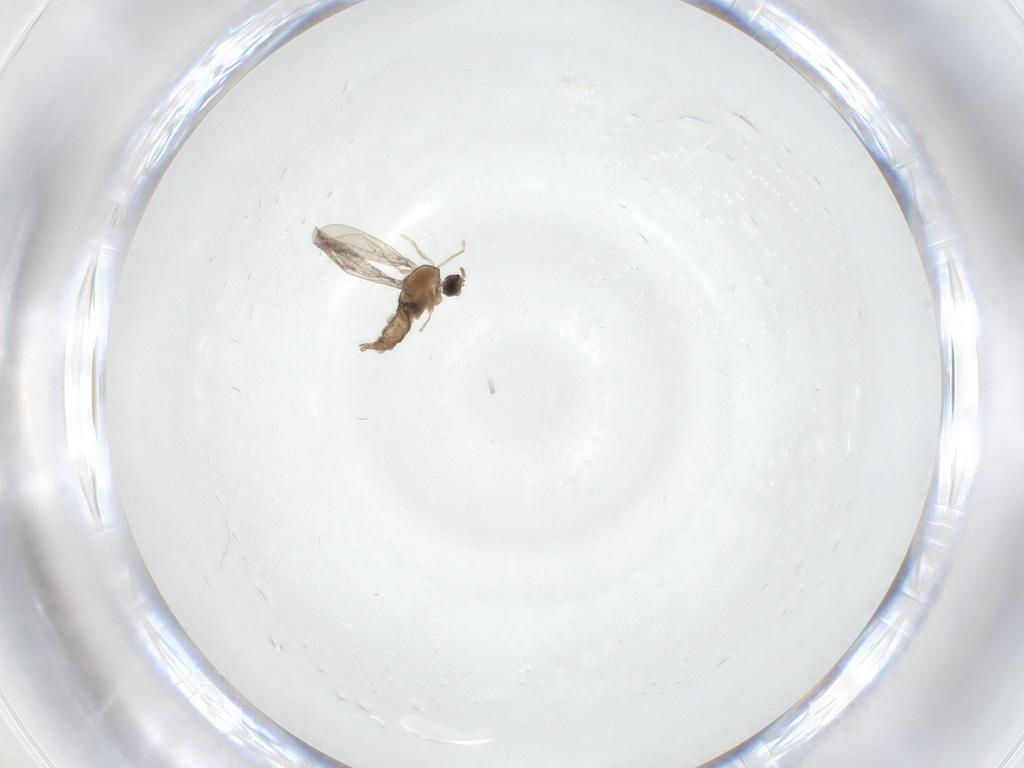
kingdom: Animalia
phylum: Arthropoda
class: Insecta
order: Diptera
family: Cecidomyiidae
